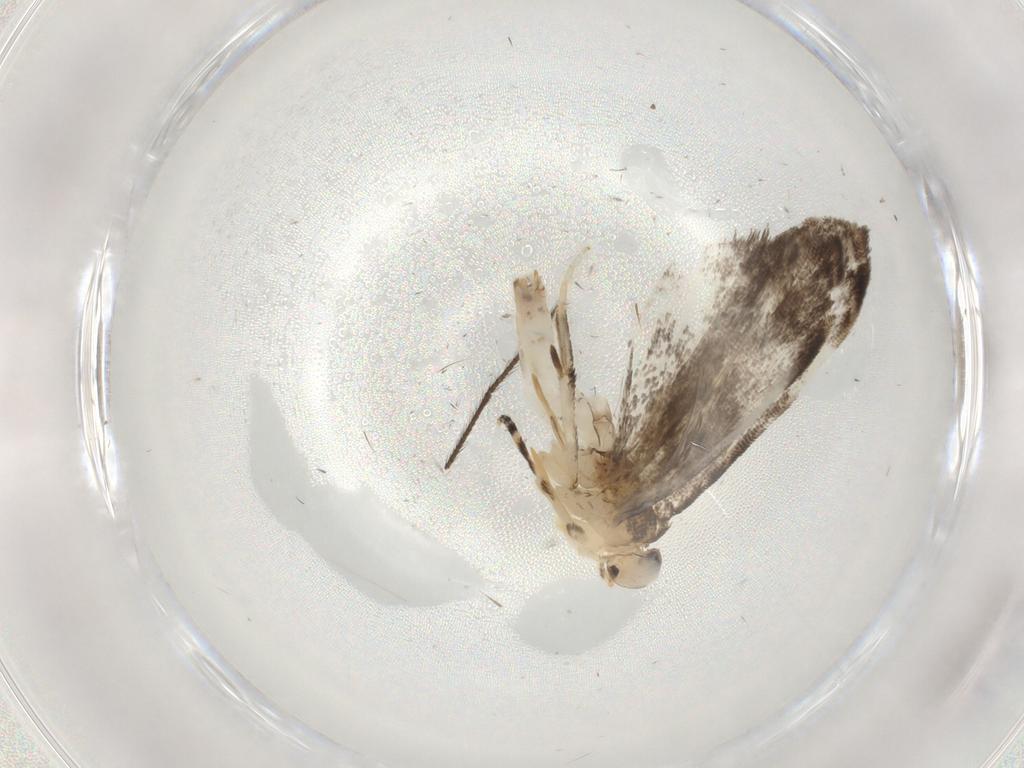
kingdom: Animalia
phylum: Arthropoda
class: Insecta
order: Lepidoptera
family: Dryadaulidae
